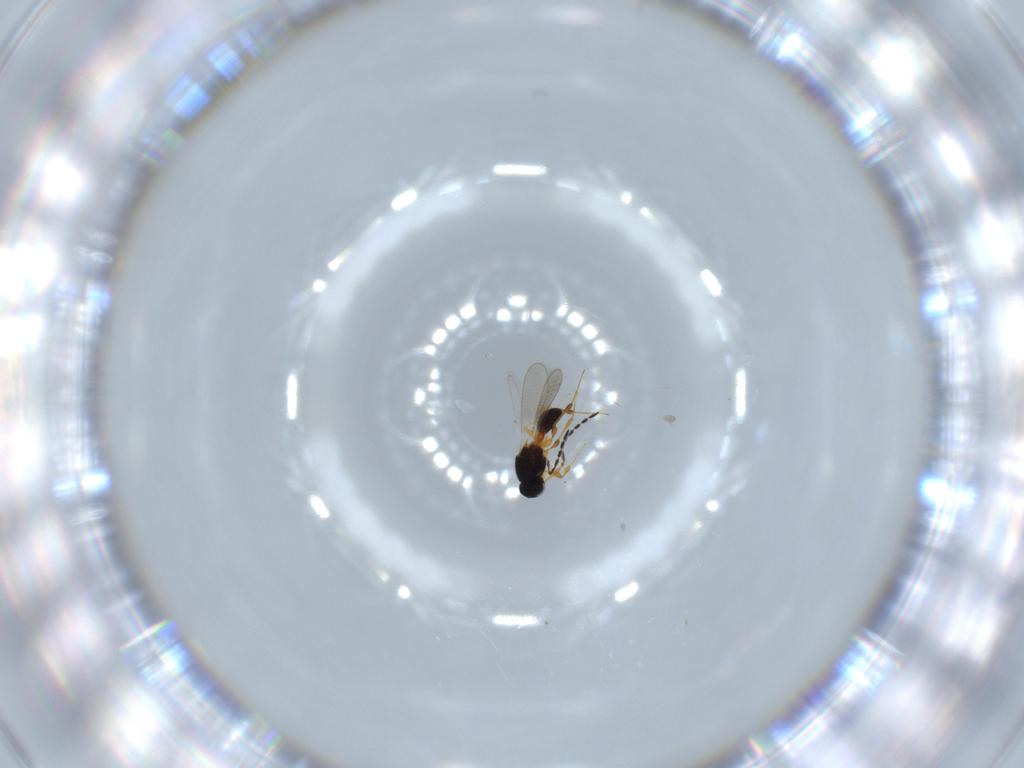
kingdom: Animalia
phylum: Arthropoda
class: Insecta
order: Hymenoptera
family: Platygastridae
